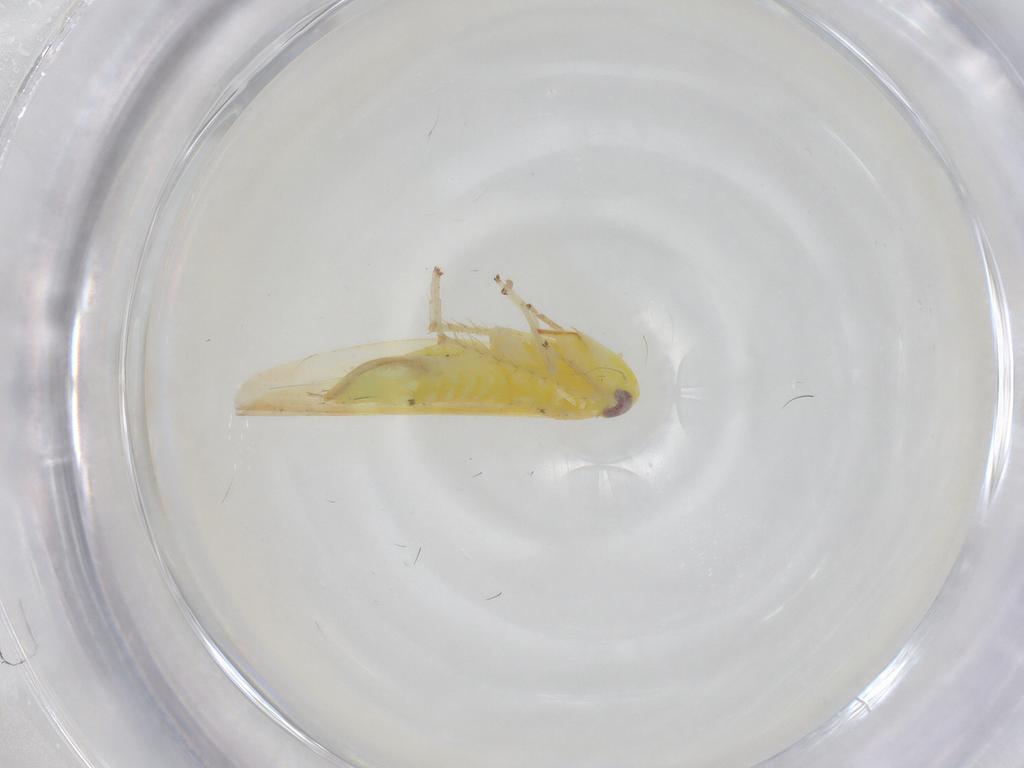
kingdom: Animalia
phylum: Arthropoda
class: Insecta
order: Hemiptera
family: Cicadellidae
